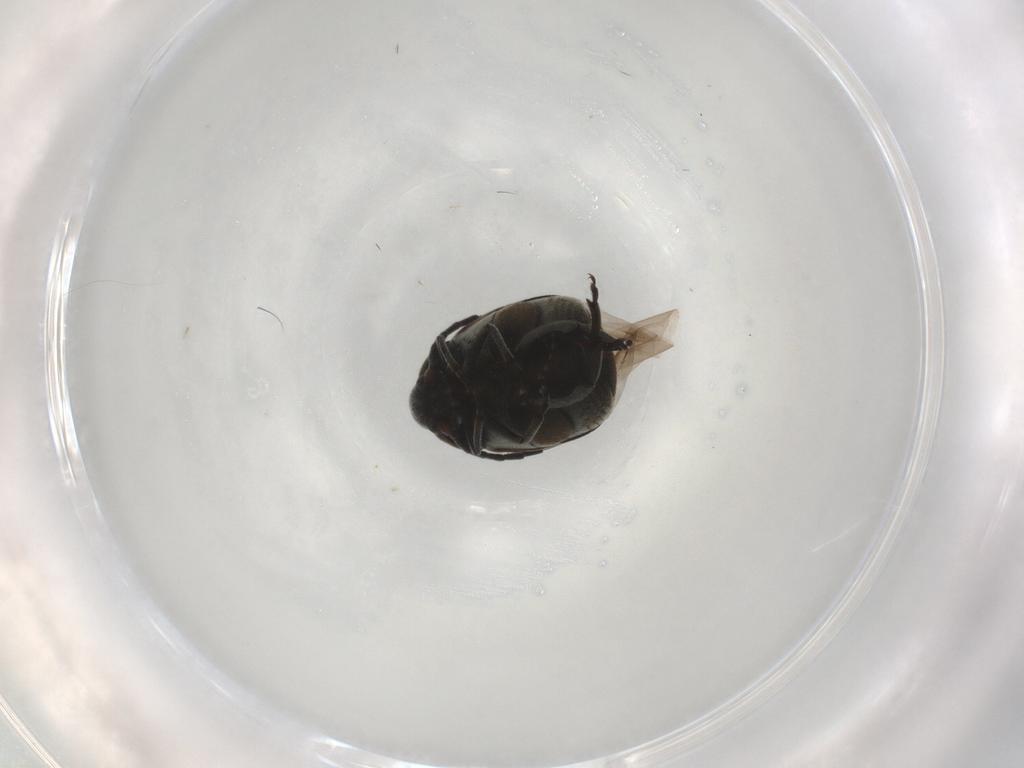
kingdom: Animalia
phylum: Arthropoda
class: Insecta
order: Coleoptera
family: Chrysomelidae
